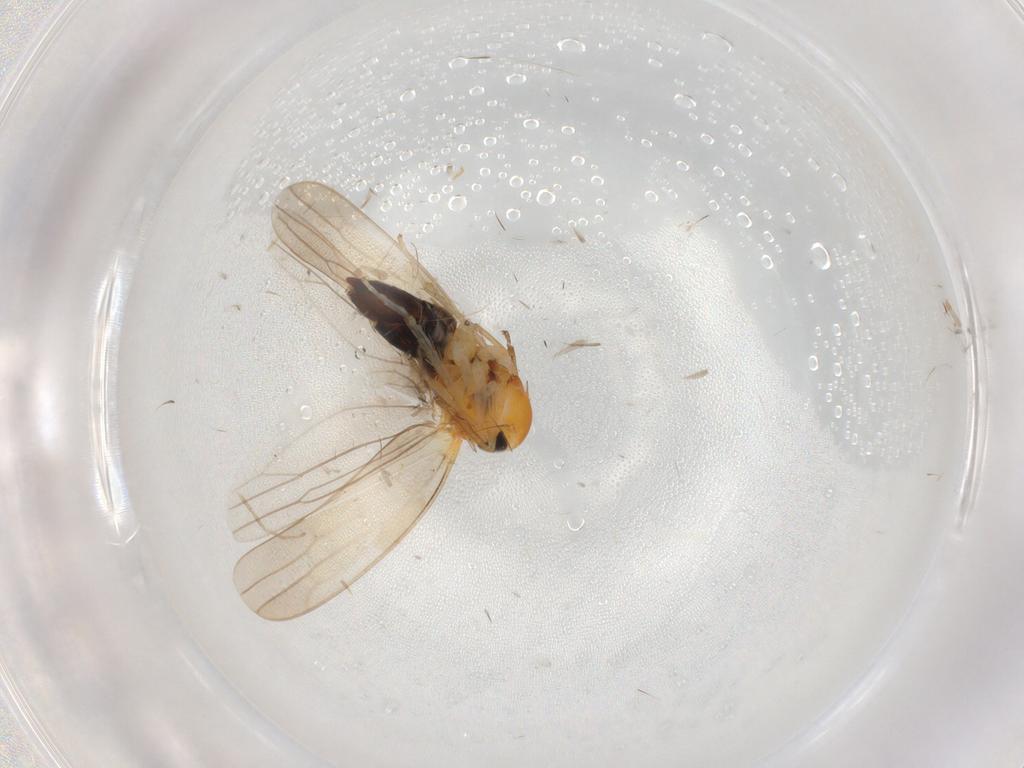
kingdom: Animalia
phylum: Arthropoda
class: Insecta
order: Hemiptera
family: Cicadellidae
